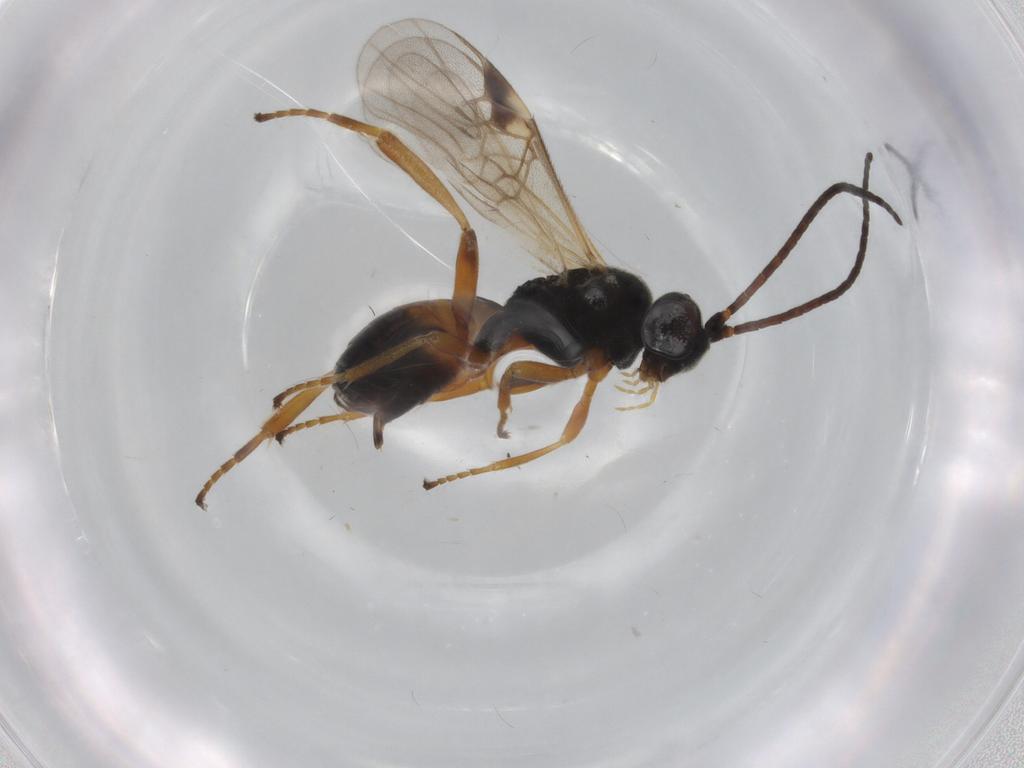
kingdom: Animalia
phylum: Arthropoda
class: Insecta
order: Hymenoptera
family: Braconidae
